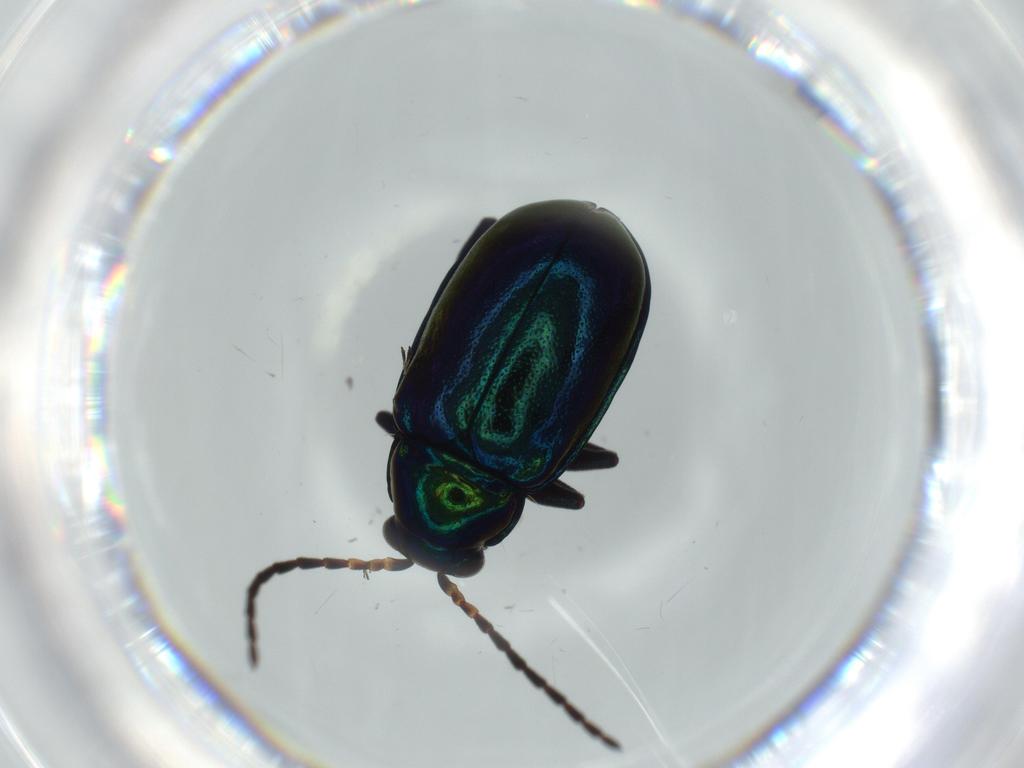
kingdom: Animalia
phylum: Arthropoda
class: Insecta
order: Coleoptera
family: Chrysomelidae
